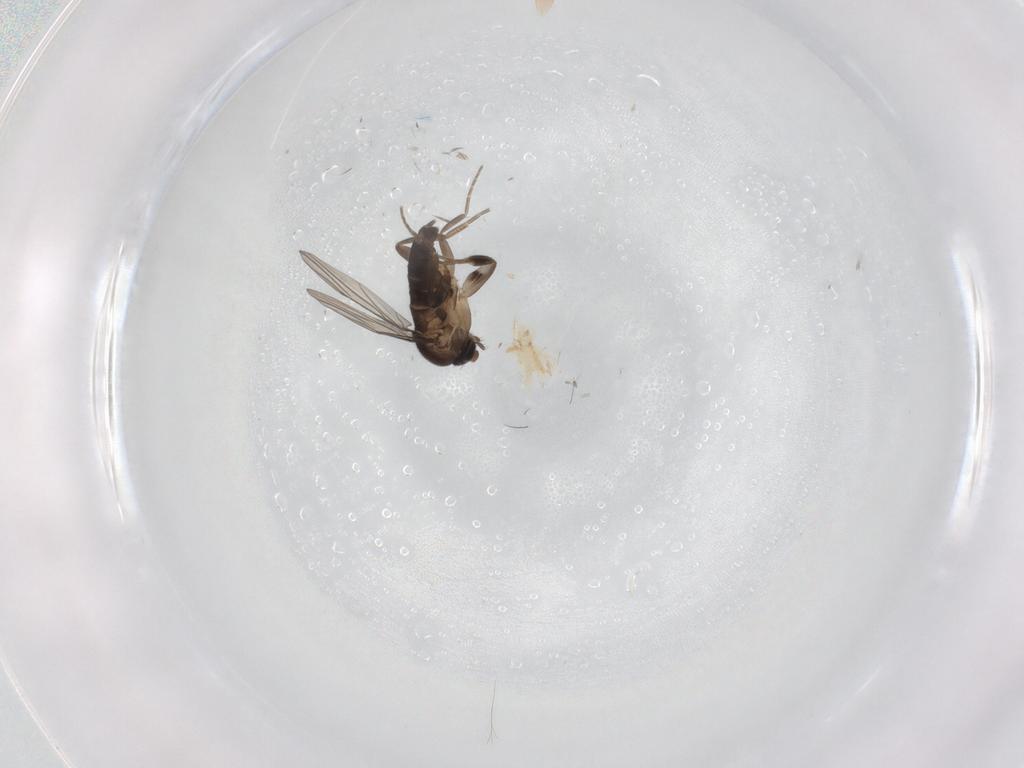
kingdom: Animalia
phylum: Arthropoda
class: Insecta
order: Diptera
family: Phoridae
